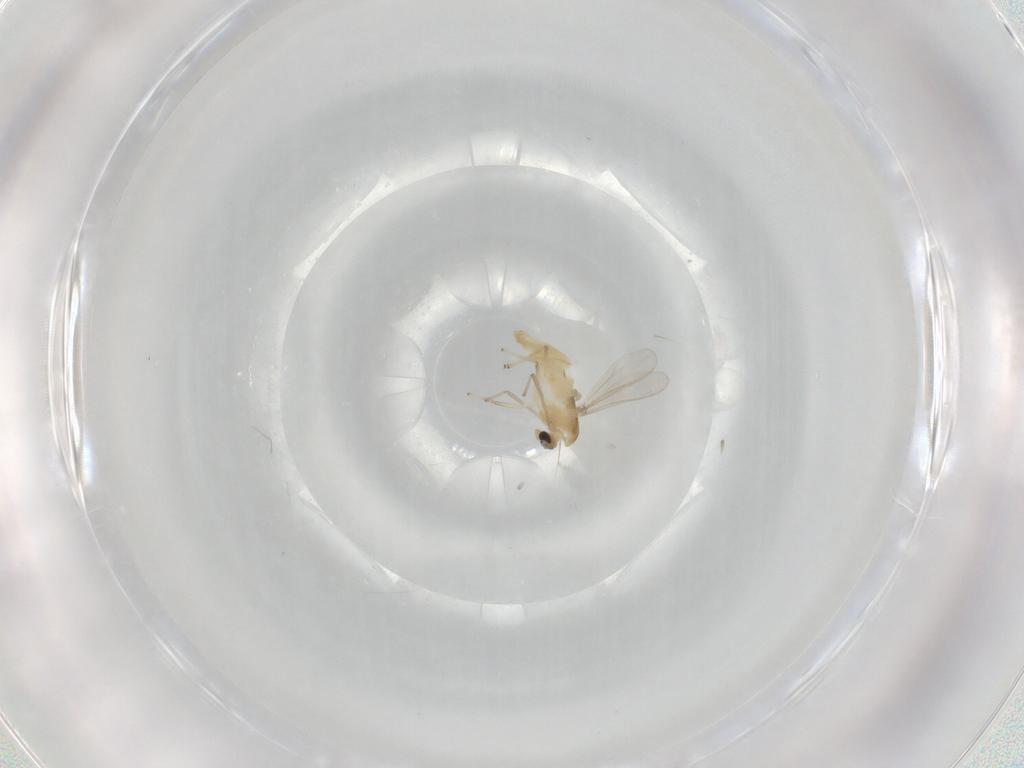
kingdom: Animalia
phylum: Arthropoda
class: Insecta
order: Diptera
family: Chironomidae
